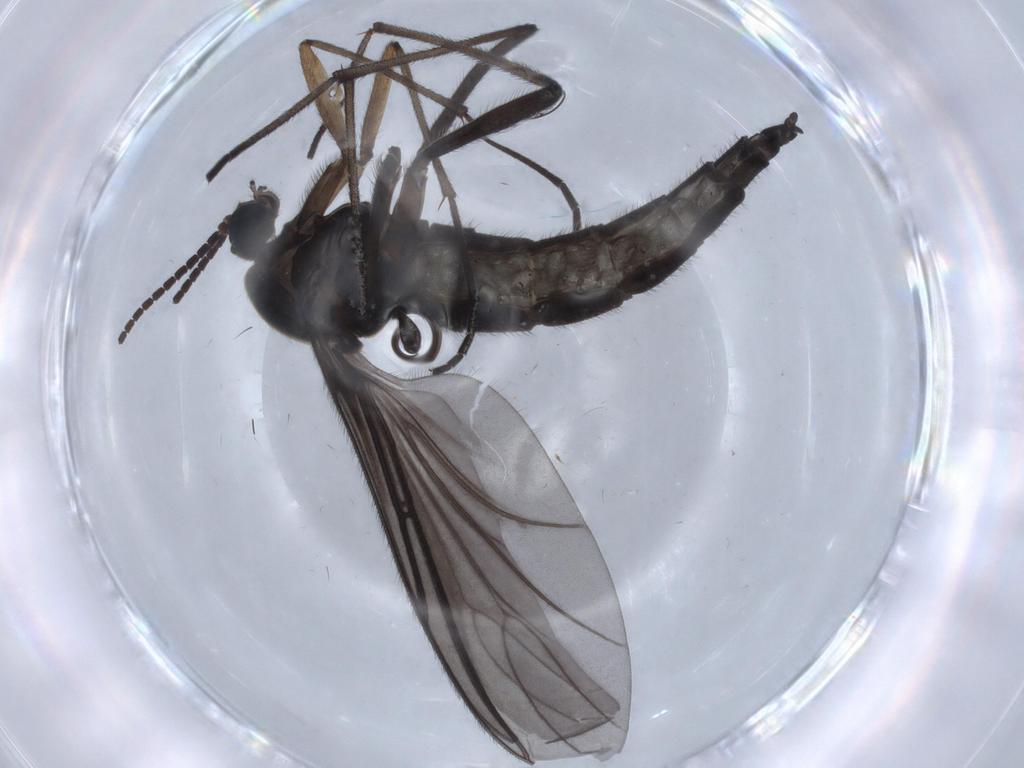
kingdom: Animalia
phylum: Arthropoda
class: Insecta
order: Diptera
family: Sciaridae
